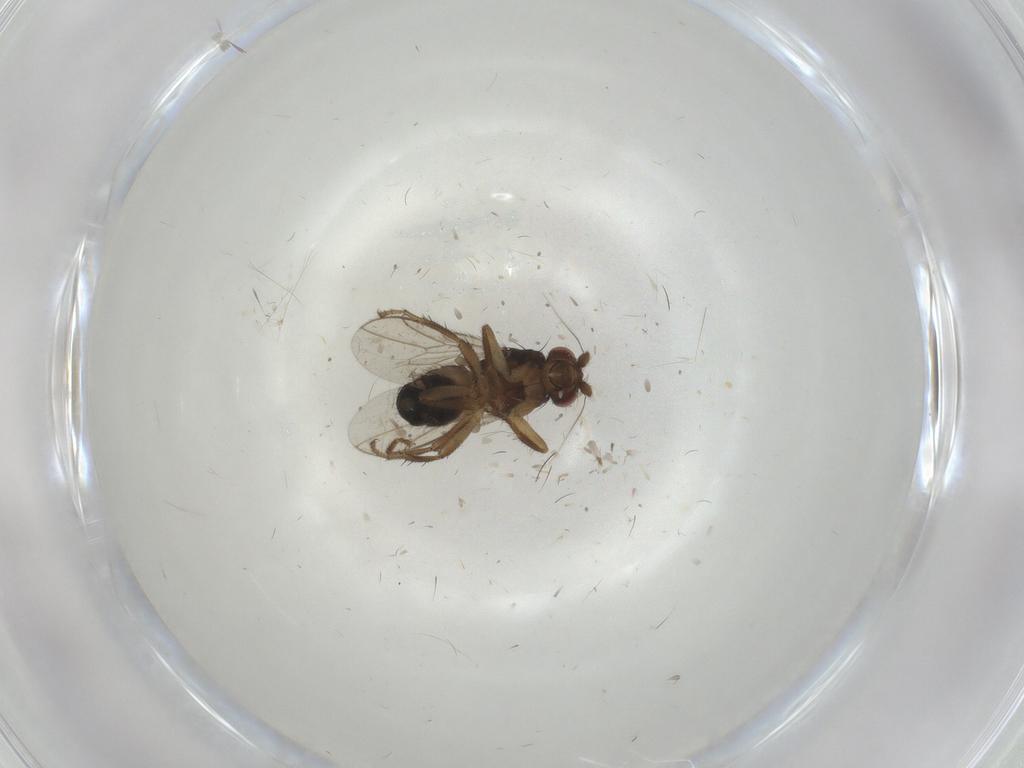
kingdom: Animalia
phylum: Arthropoda
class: Insecta
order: Diptera
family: Sphaeroceridae
